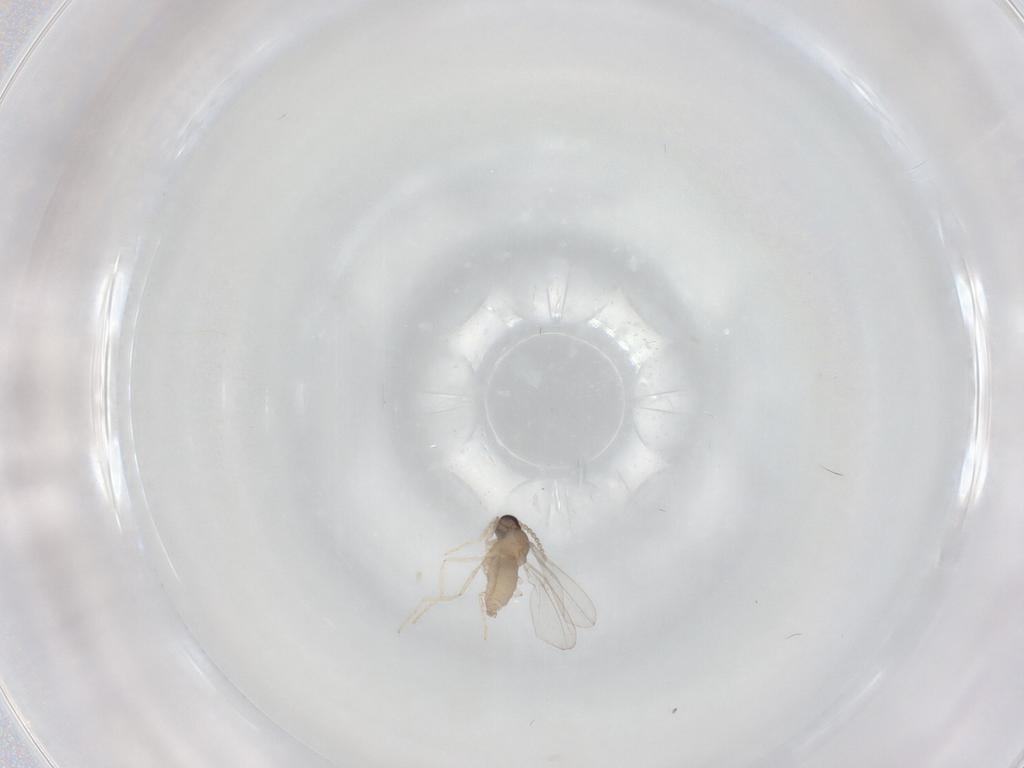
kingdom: Animalia
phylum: Arthropoda
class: Insecta
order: Diptera
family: Cecidomyiidae
